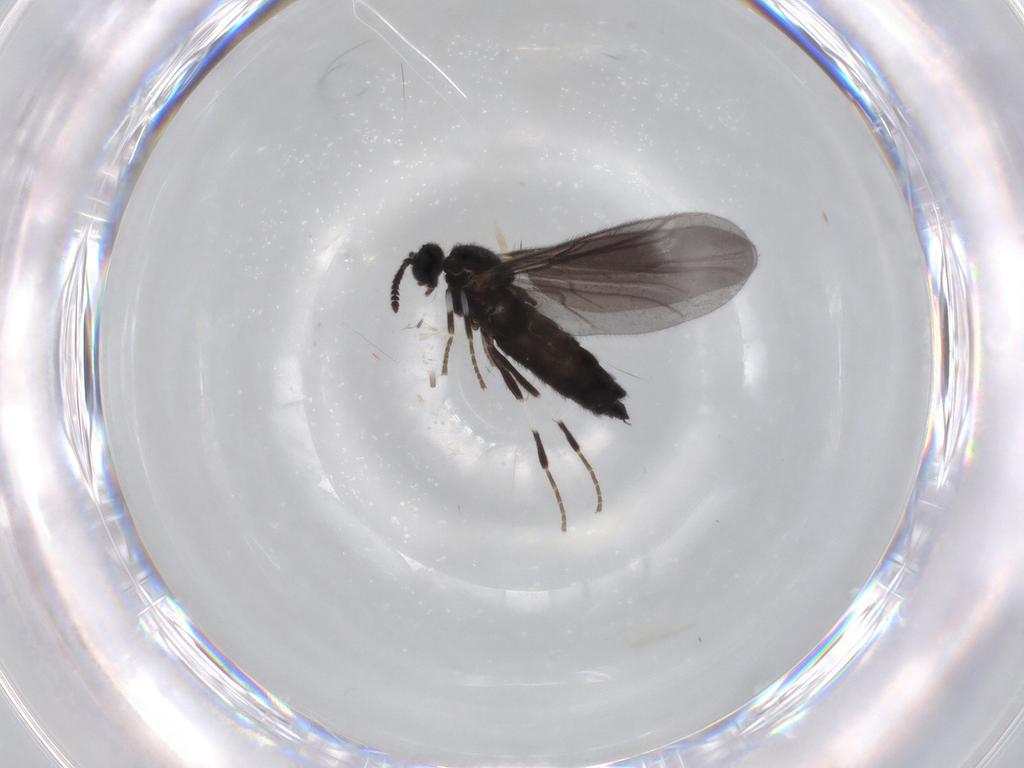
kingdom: Animalia
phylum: Arthropoda
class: Insecta
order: Diptera
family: Scatopsidae
